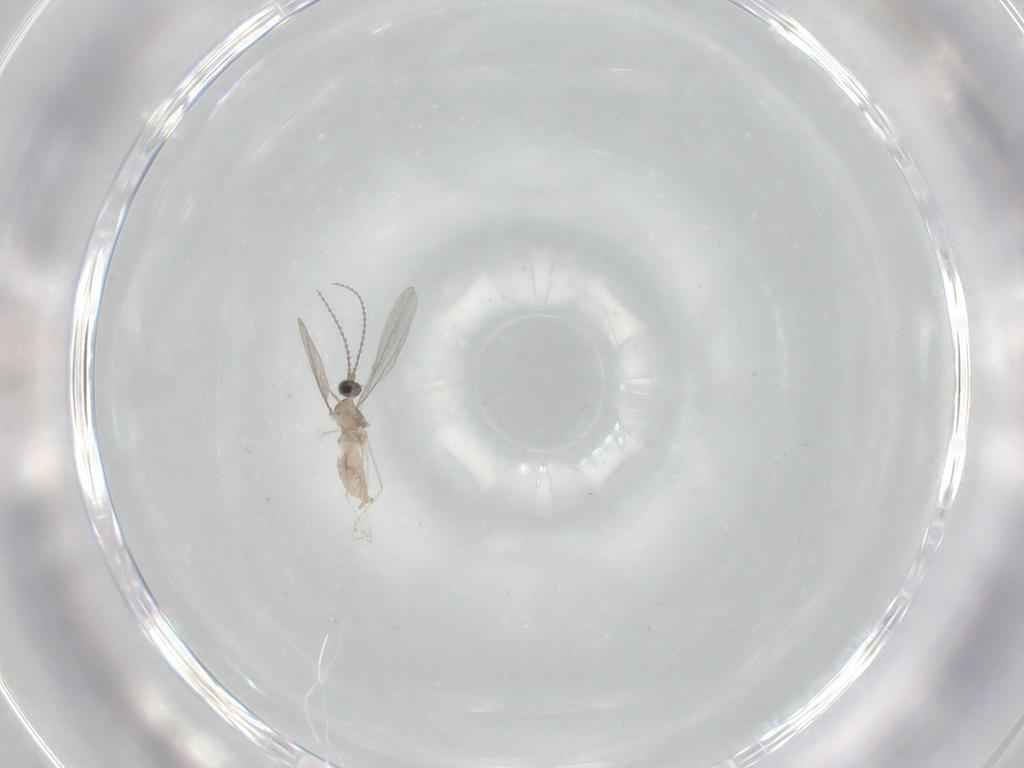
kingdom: Animalia
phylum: Arthropoda
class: Insecta
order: Diptera
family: Cecidomyiidae
